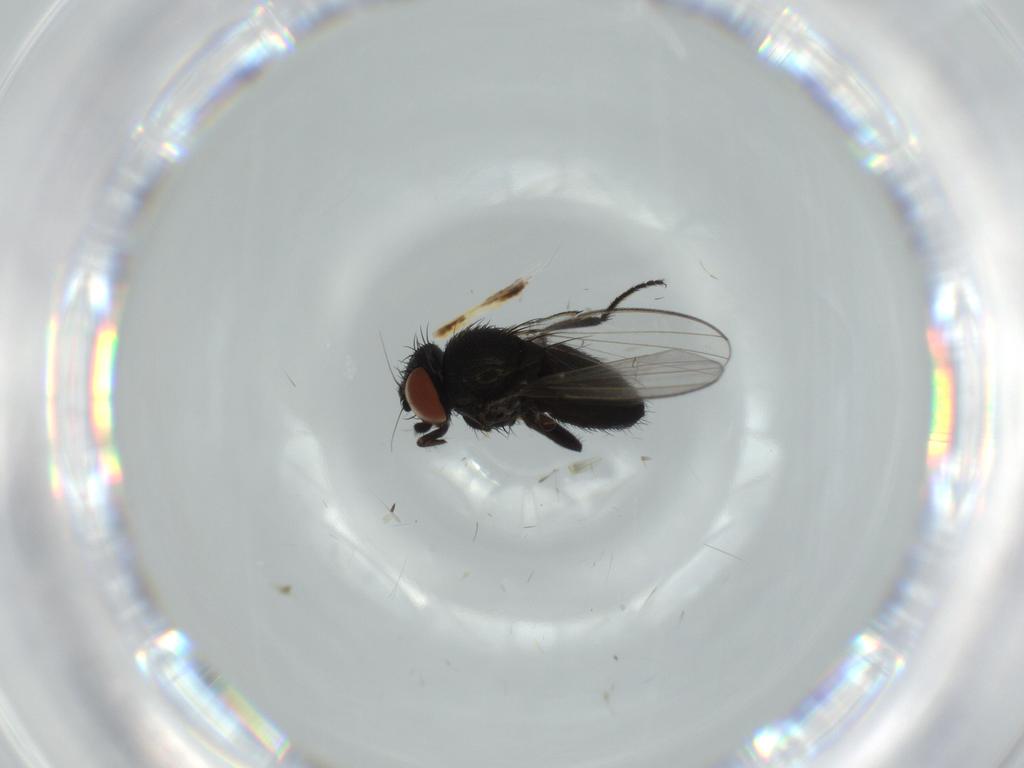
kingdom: Animalia
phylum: Arthropoda
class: Insecta
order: Diptera
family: Milichiidae
